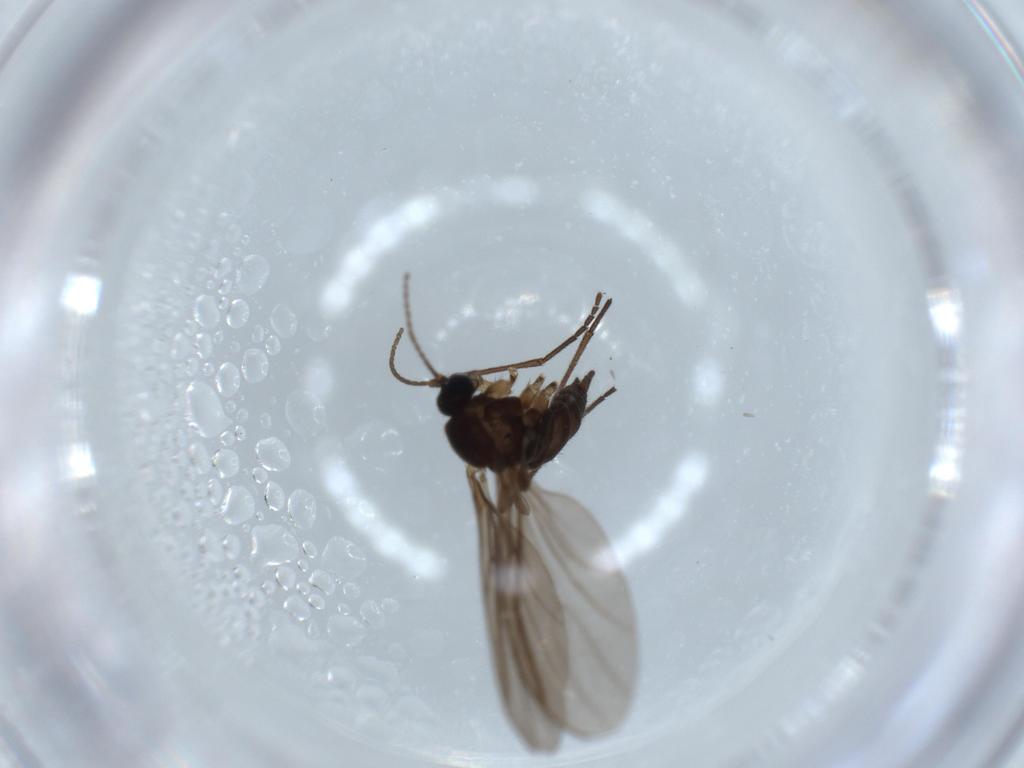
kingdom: Animalia
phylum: Arthropoda
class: Insecta
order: Diptera
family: Sciaridae
